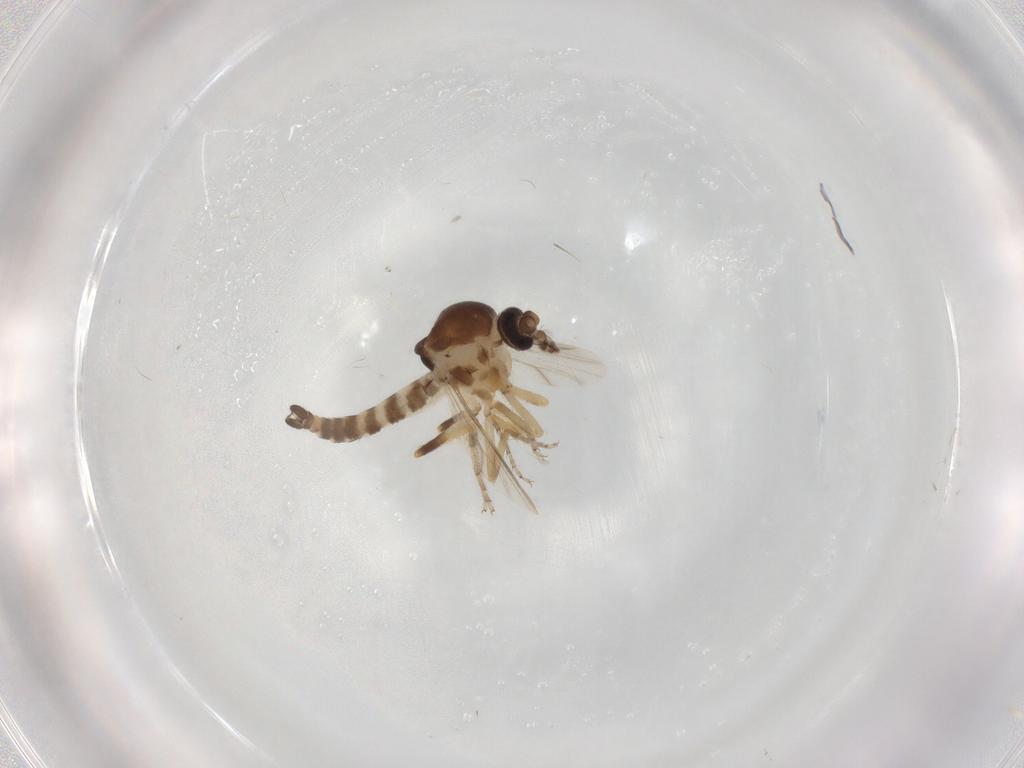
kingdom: Animalia
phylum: Arthropoda
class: Insecta
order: Diptera
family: Ceratopogonidae
